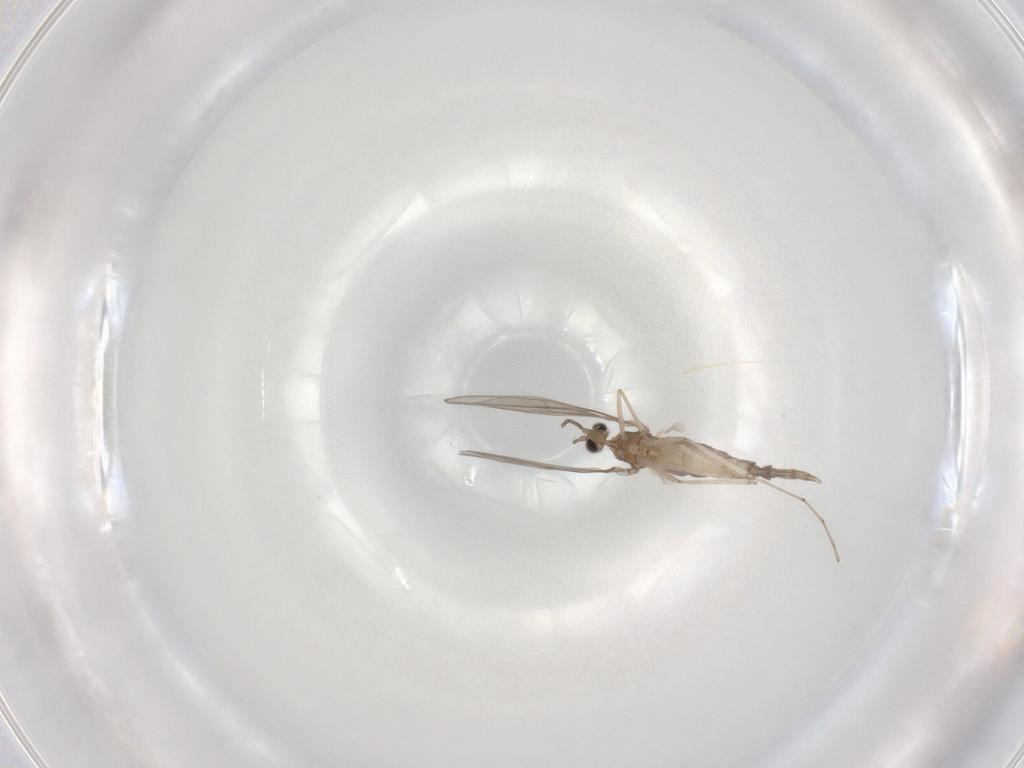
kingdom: Animalia
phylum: Arthropoda
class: Insecta
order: Diptera
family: Cecidomyiidae
